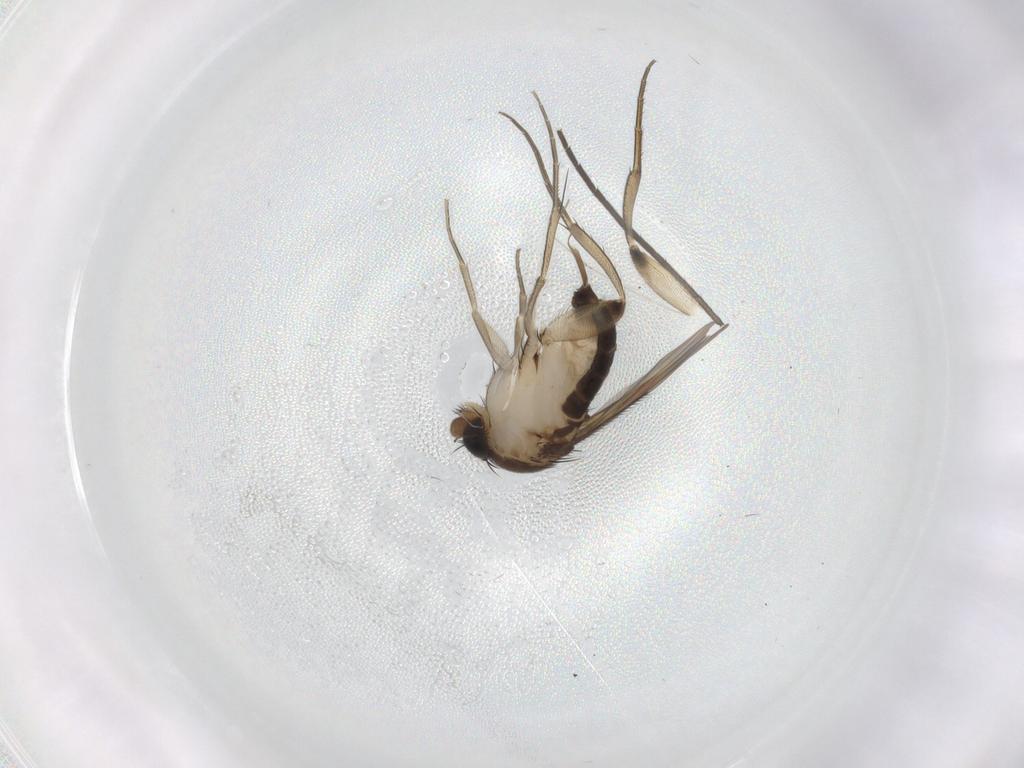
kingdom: Animalia
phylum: Arthropoda
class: Insecta
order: Diptera
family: Phoridae
